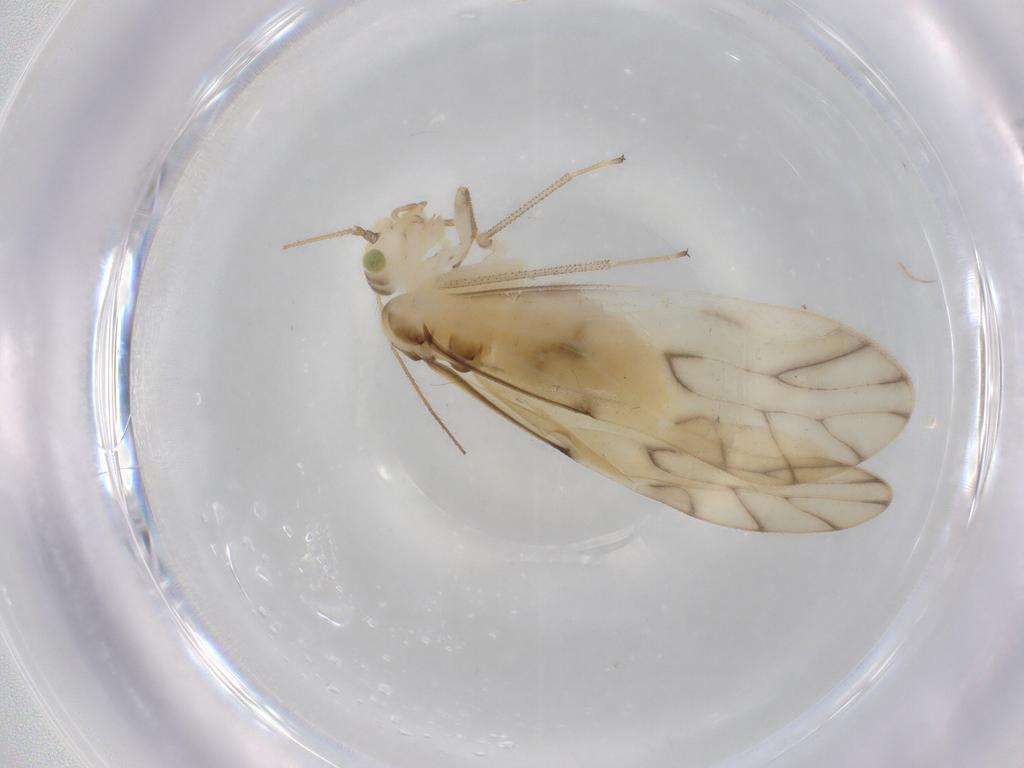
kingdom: Animalia
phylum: Arthropoda
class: Insecta
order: Psocodea
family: Caeciliusidae
